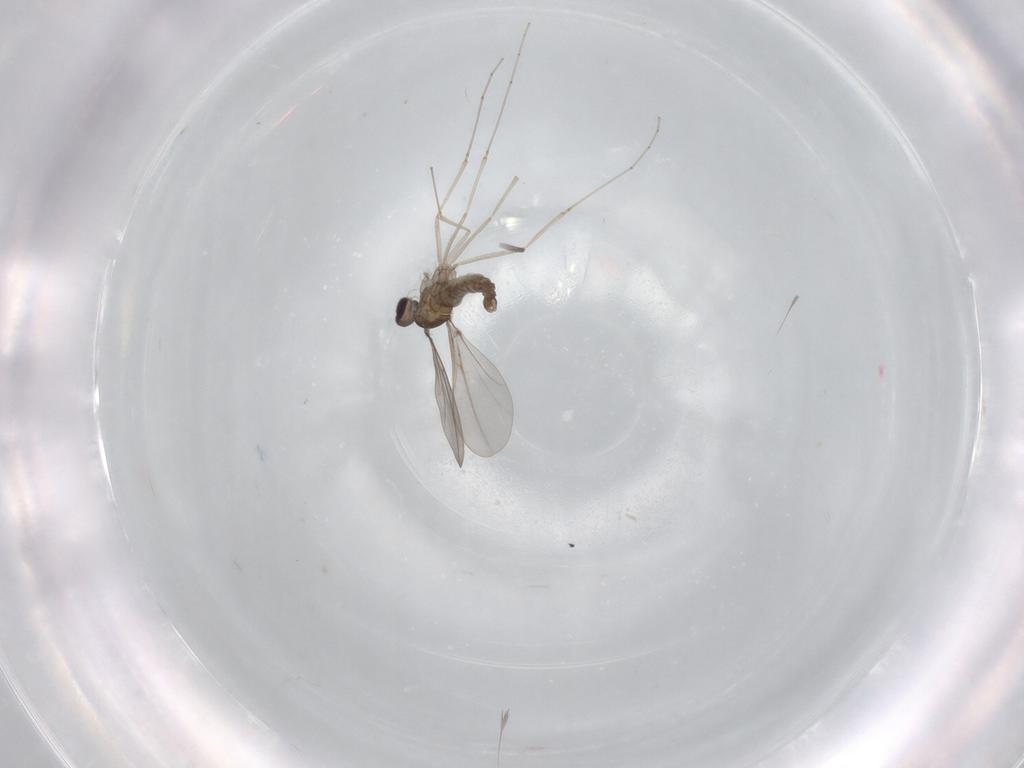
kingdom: Animalia
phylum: Arthropoda
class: Insecta
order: Diptera
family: Cecidomyiidae
